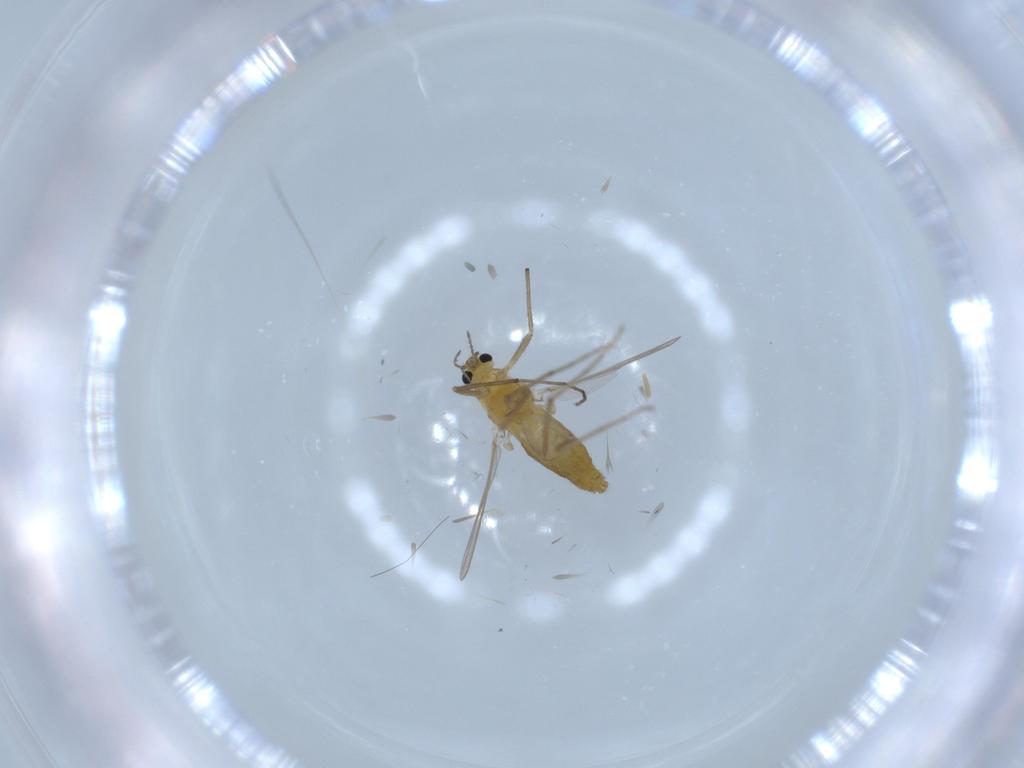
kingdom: Animalia
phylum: Arthropoda
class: Insecta
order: Diptera
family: Chironomidae
